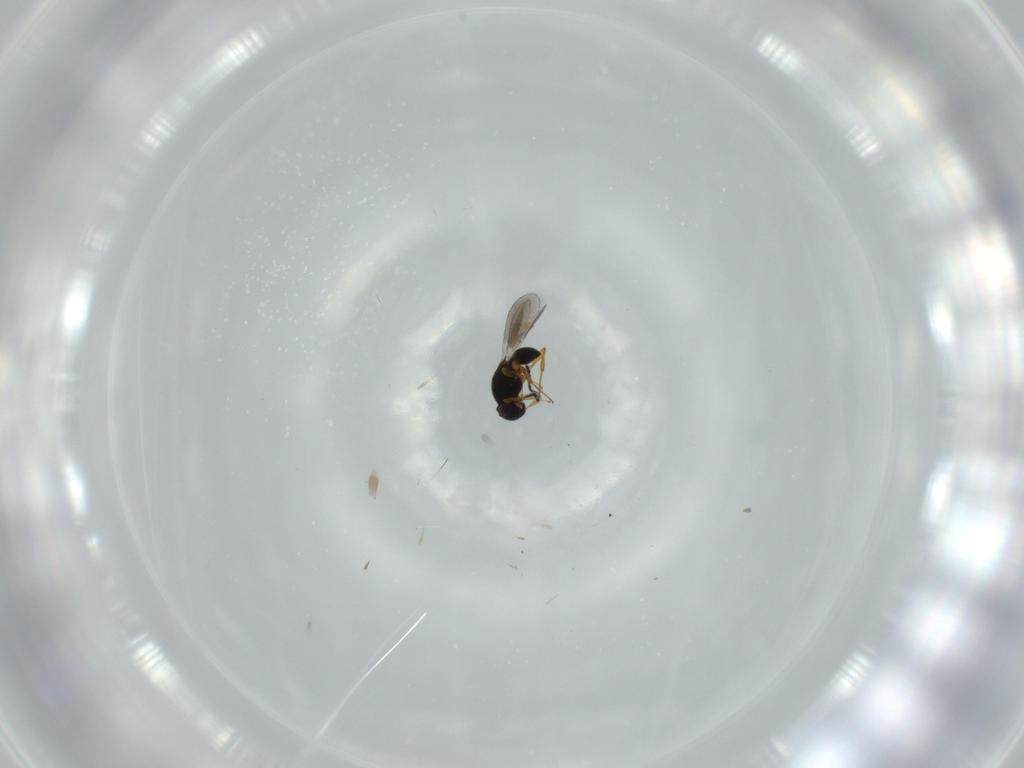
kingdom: Animalia
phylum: Arthropoda
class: Insecta
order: Hymenoptera
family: Platygastridae
